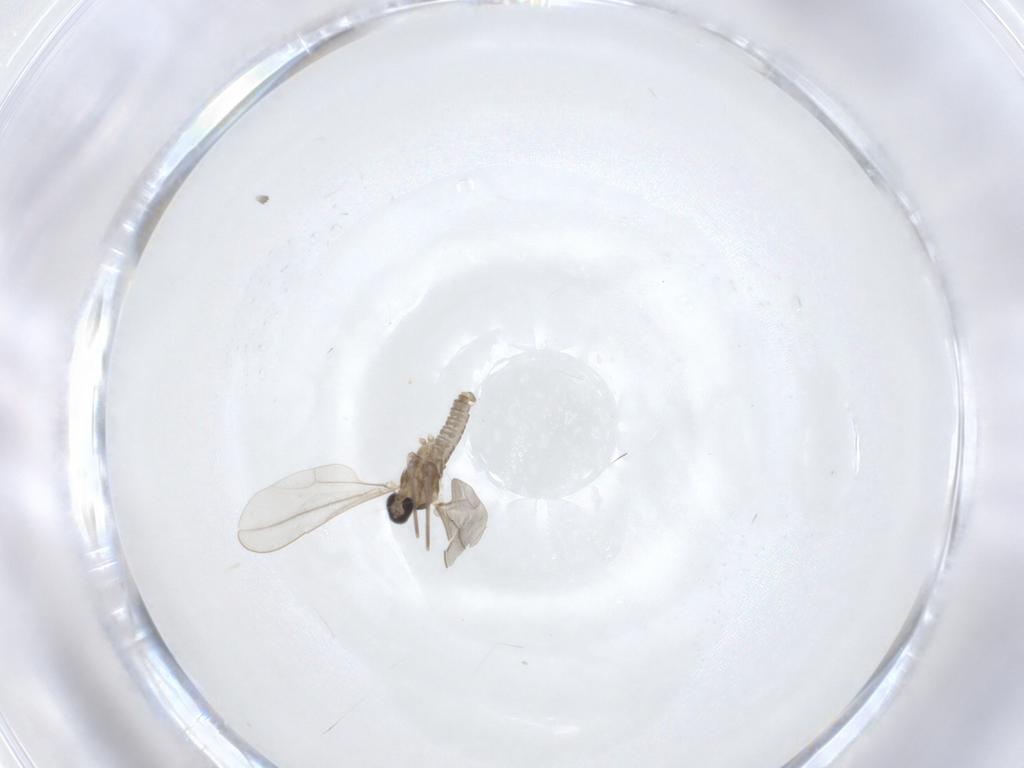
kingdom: Animalia
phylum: Arthropoda
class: Insecta
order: Diptera
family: Cecidomyiidae
